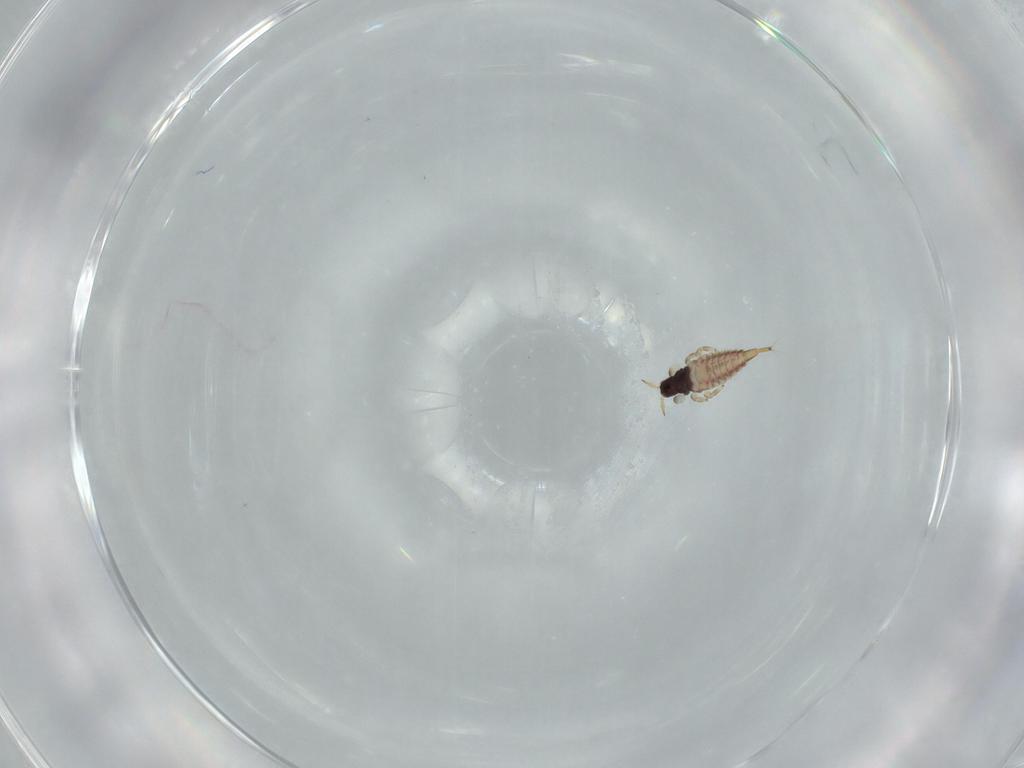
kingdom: Animalia
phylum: Arthropoda
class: Insecta
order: Thysanoptera
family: Phlaeothripidae
